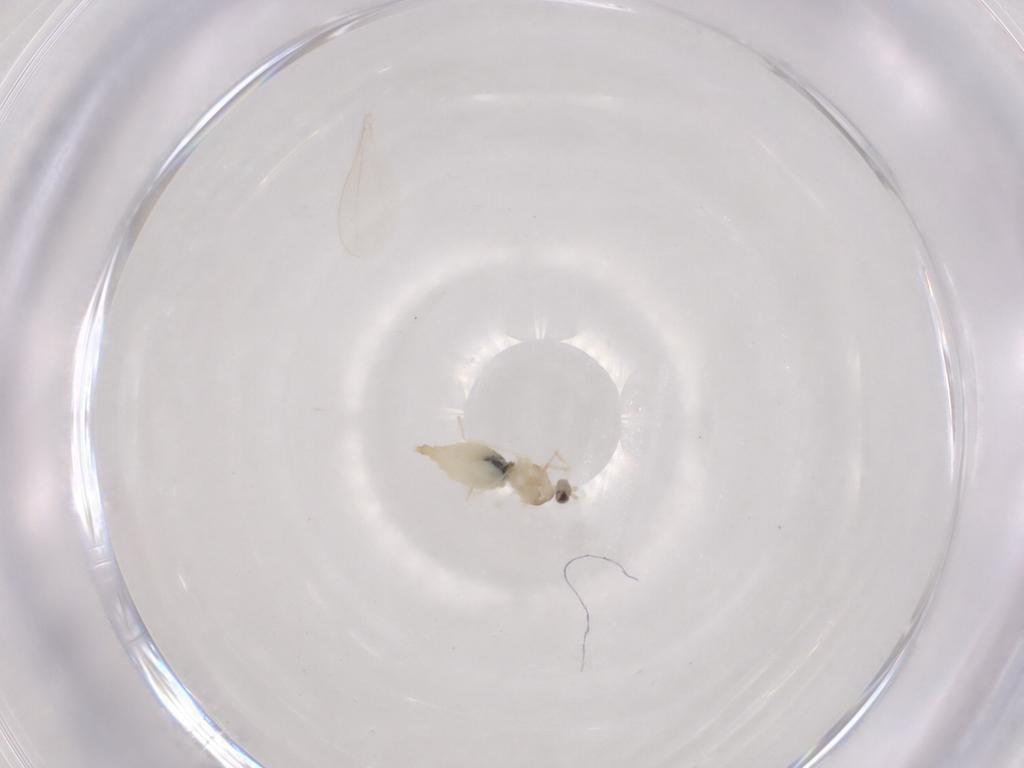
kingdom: Animalia
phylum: Arthropoda
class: Insecta
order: Diptera
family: Cecidomyiidae
